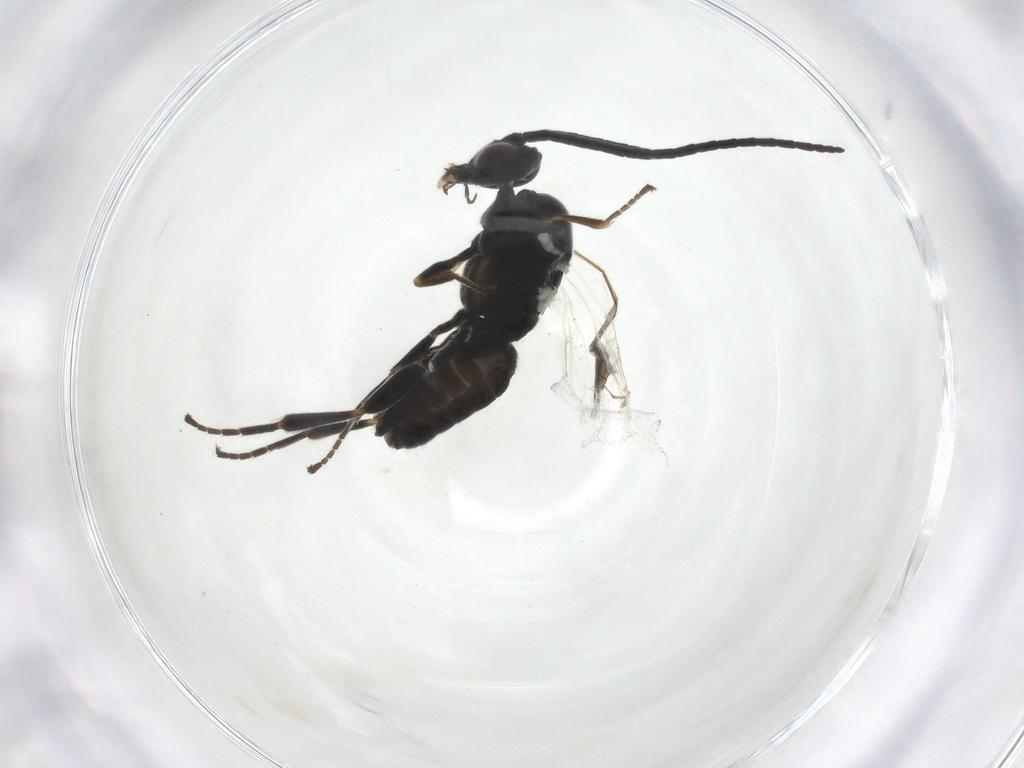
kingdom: Animalia
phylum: Arthropoda
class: Insecta
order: Hymenoptera
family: Braconidae
